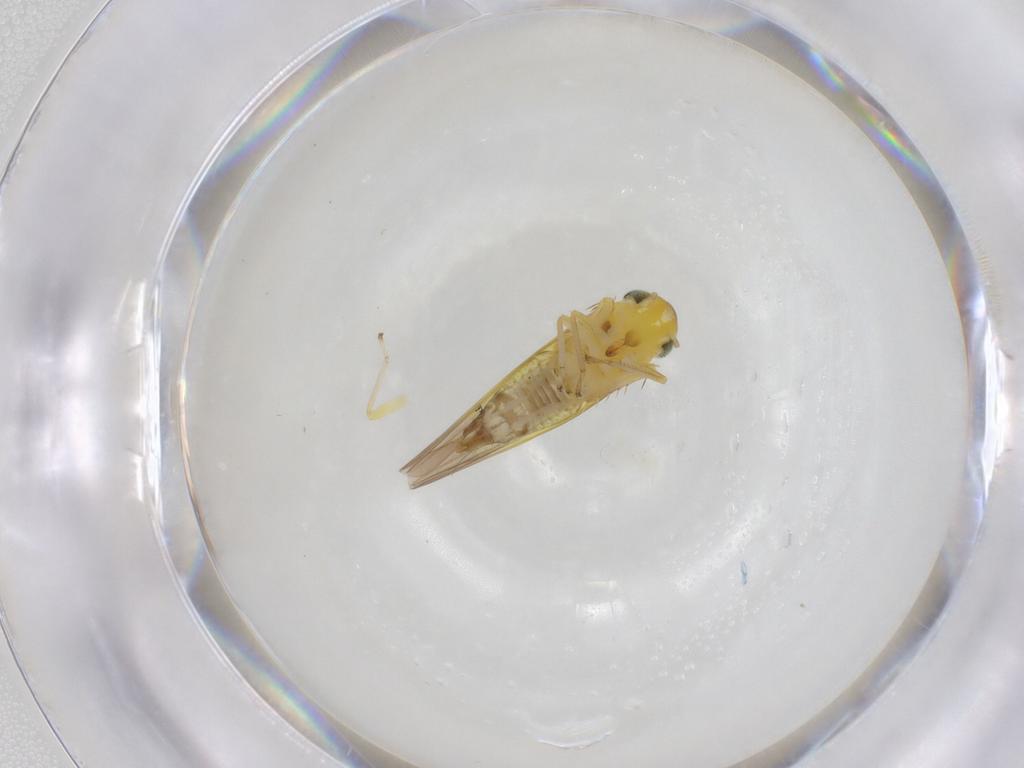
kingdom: Animalia
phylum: Arthropoda
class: Insecta
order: Hemiptera
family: Cicadellidae
